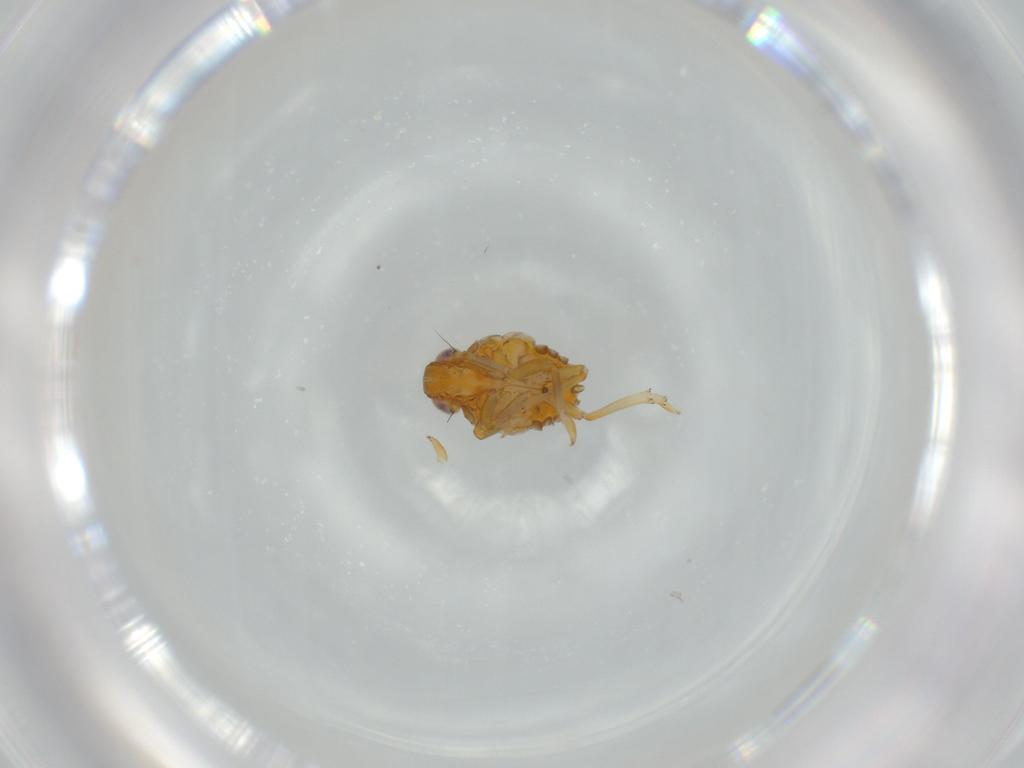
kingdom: Animalia
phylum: Arthropoda
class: Insecta
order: Hemiptera
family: Issidae
